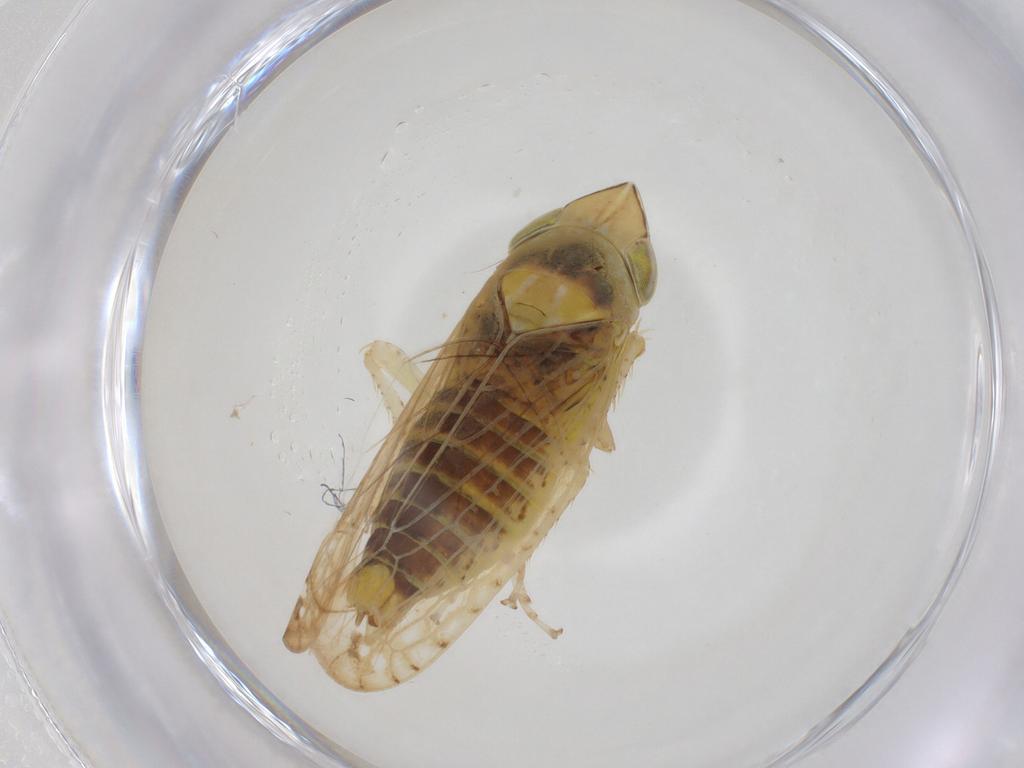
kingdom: Animalia
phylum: Arthropoda
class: Insecta
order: Hemiptera
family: Cicadellidae
